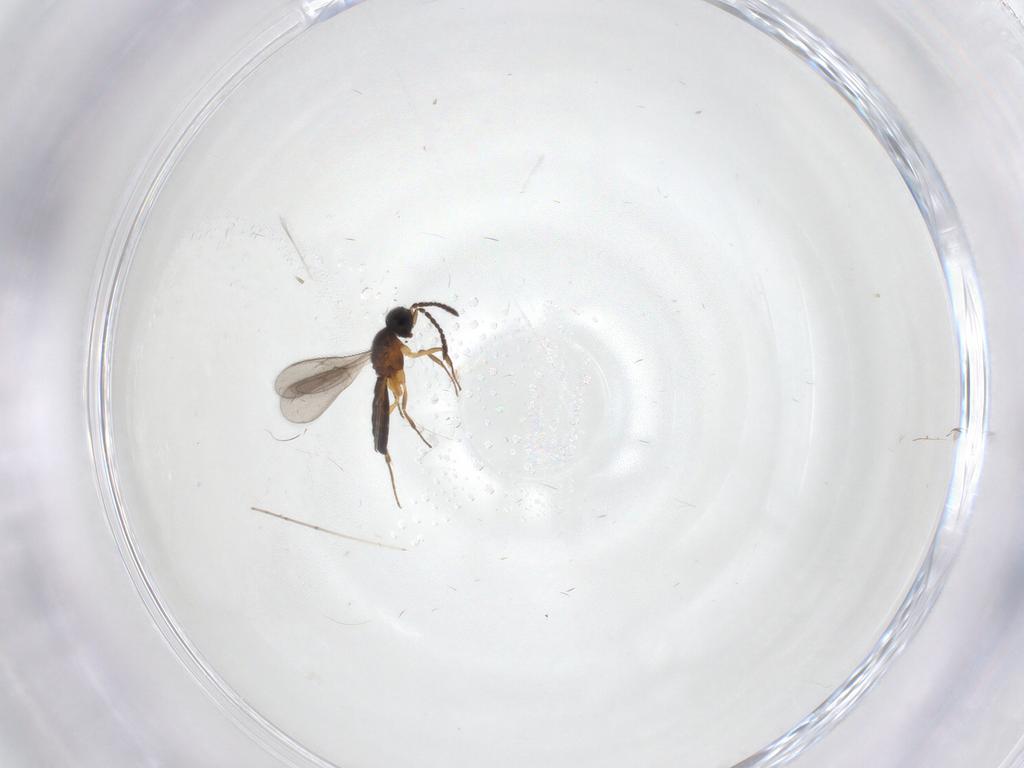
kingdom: Animalia
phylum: Arthropoda
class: Insecta
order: Hymenoptera
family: Scelionidae
